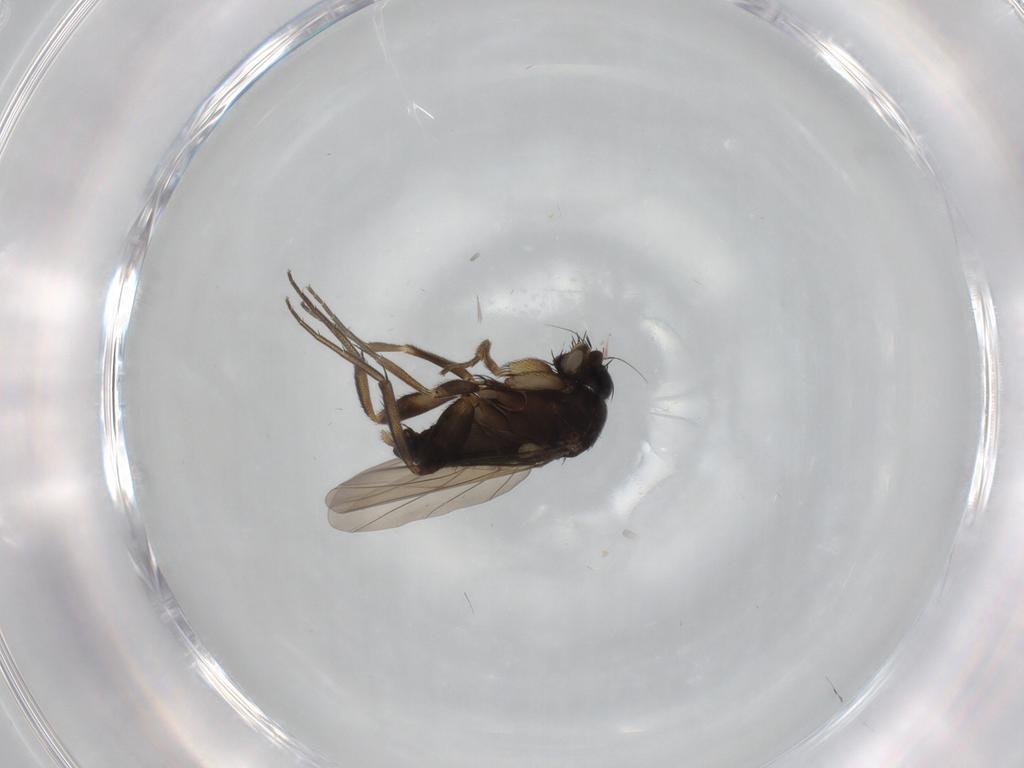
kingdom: Animalia
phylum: Arthropoda
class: Insecta
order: Diptera
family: Phoridae
